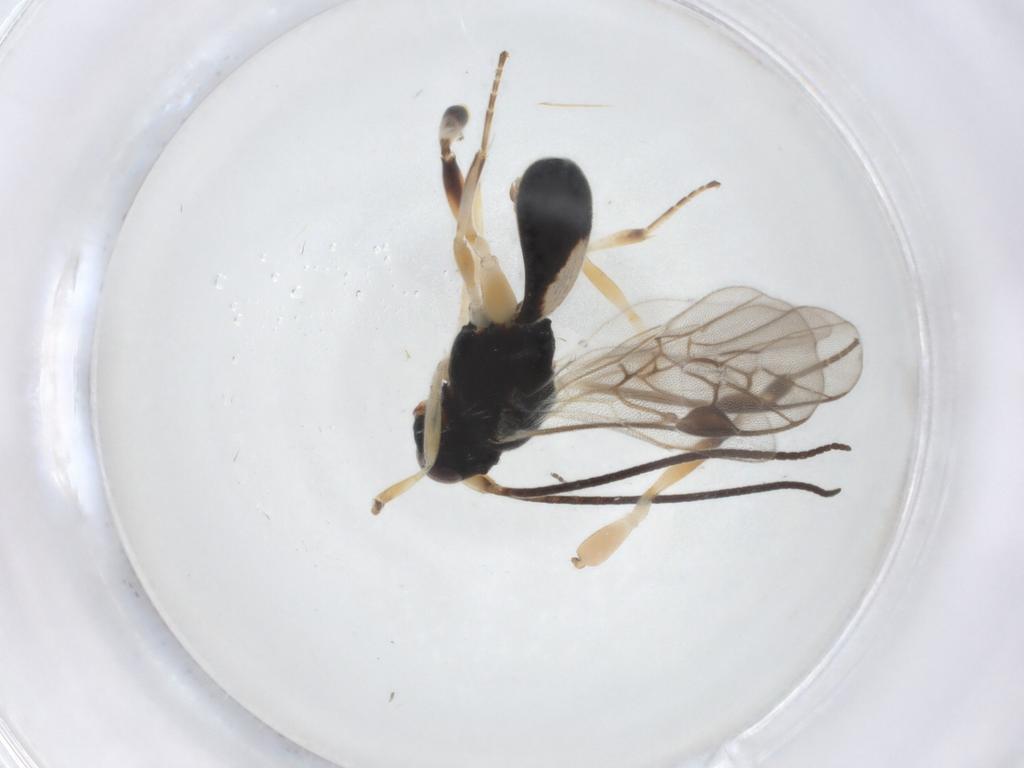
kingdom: Animalia
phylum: Arthropoda
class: Insecta
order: Hymenoptera
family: Braconidae
